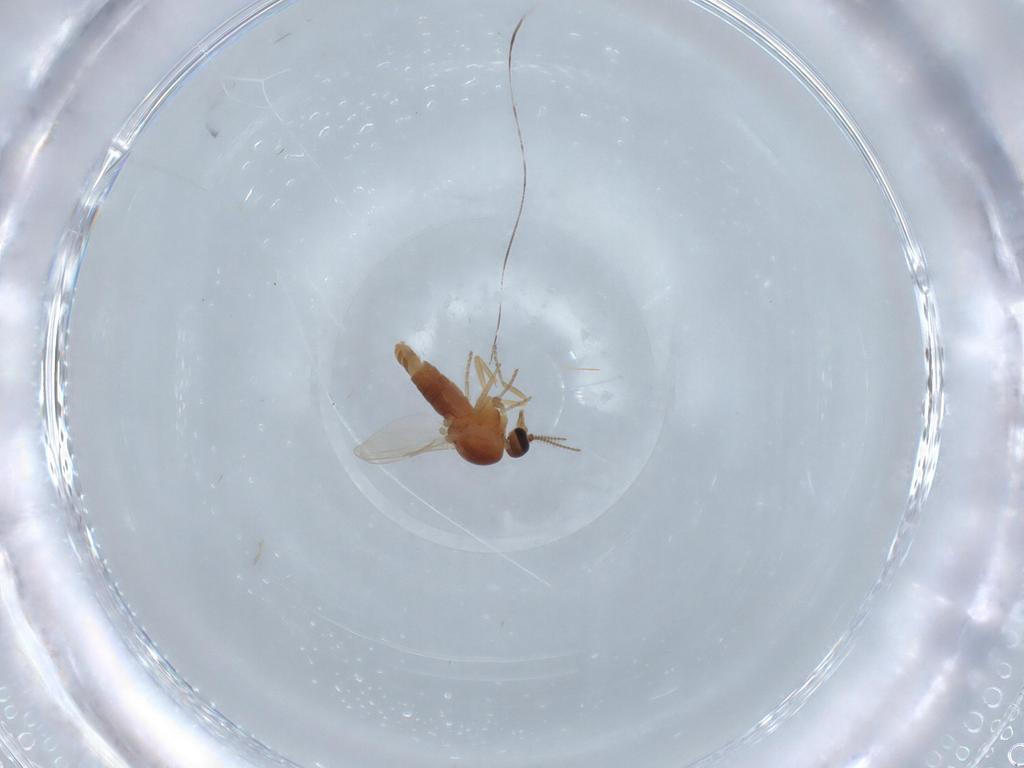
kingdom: Animalia
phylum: Arthropoda
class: Insecta
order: Diptera
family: Ceratopogonidae
